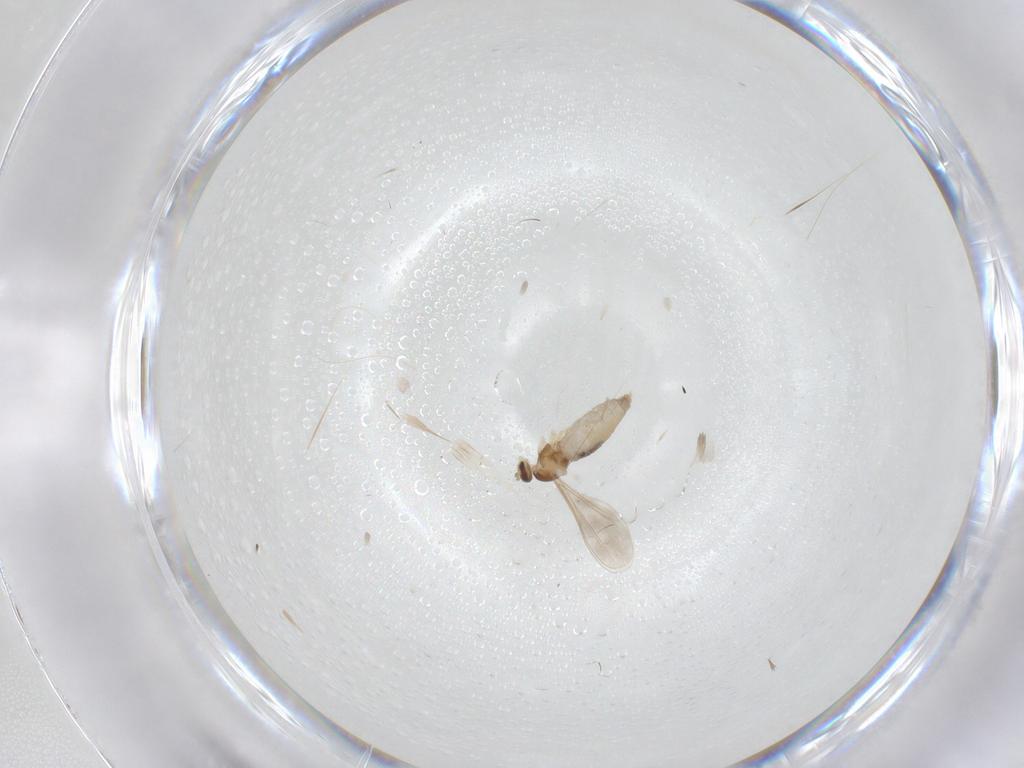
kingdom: Animalia
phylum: Arthropoda
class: Insecta
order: Diptera
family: Cecidomyiidae
